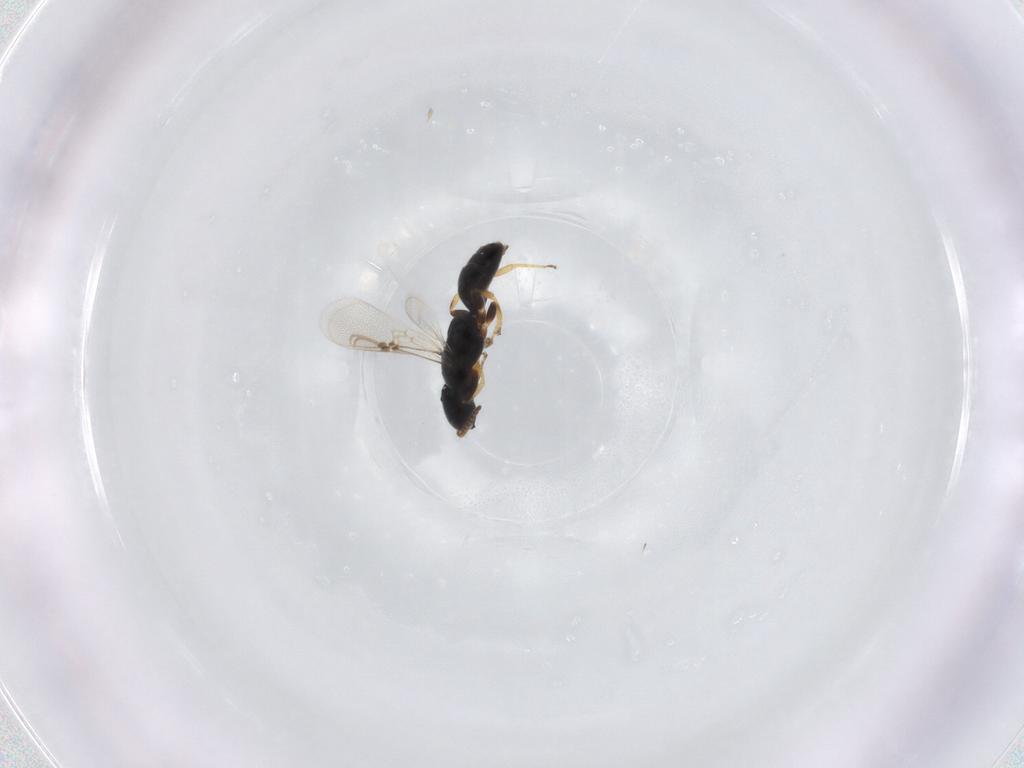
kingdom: Animalia
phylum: Arthropoda
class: Insecta
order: Hymenoptera
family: Bethylidae
